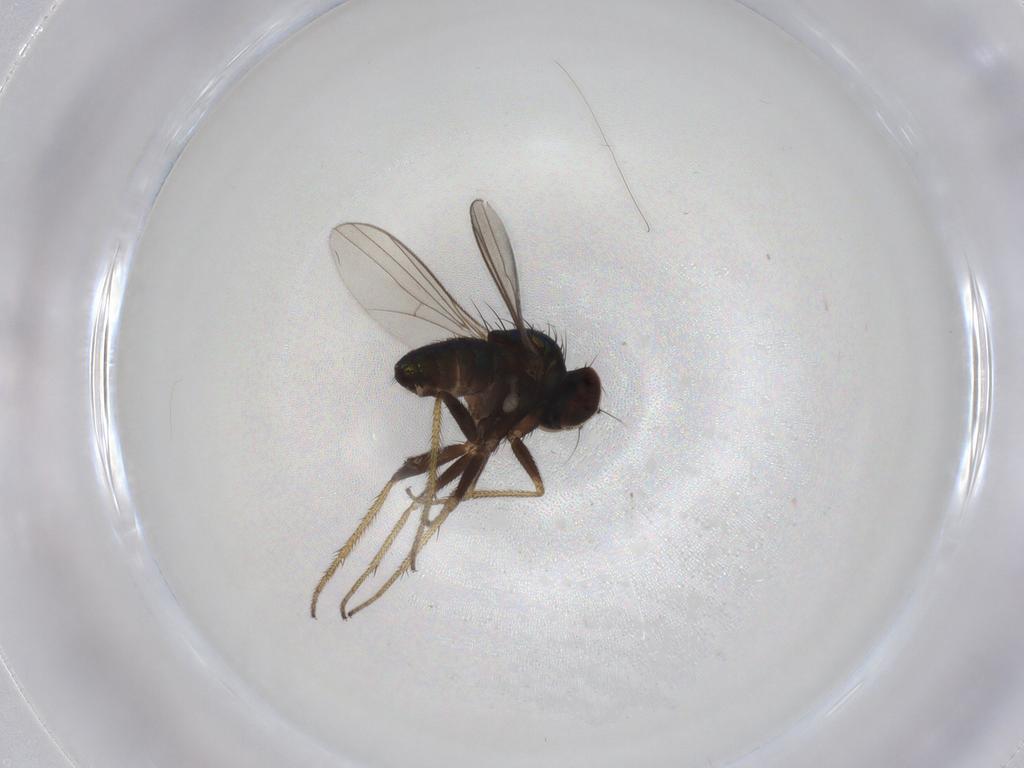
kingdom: Animalia
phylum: Arthropoda
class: Insecta
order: Diptera
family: Dolichopodidae
